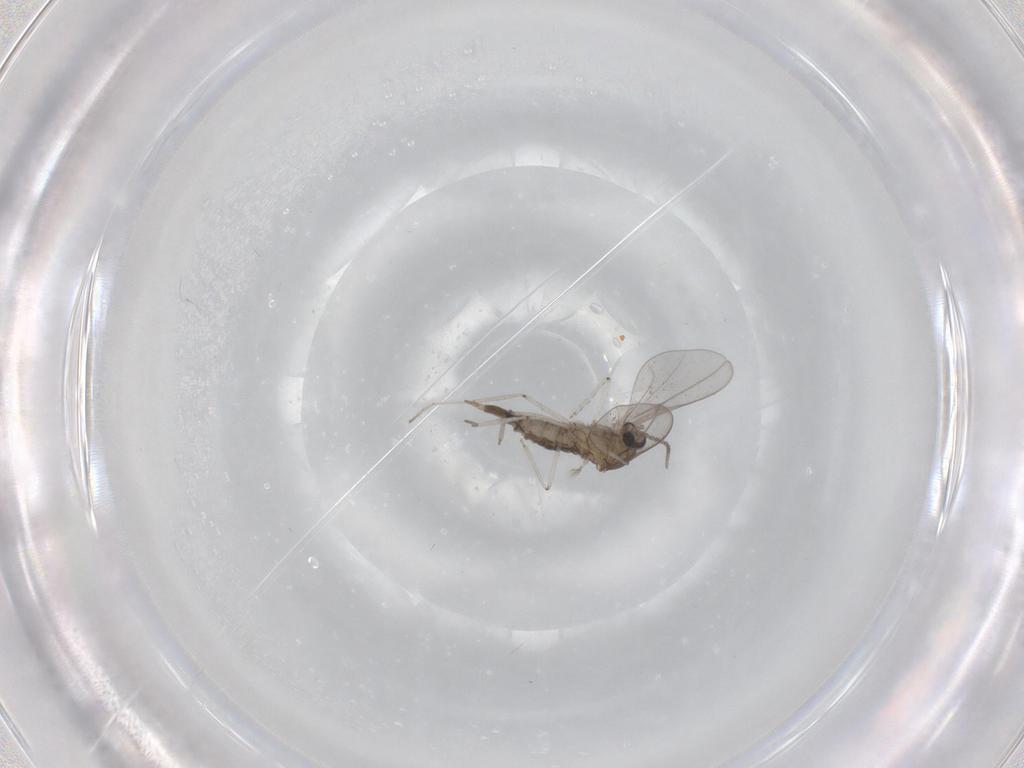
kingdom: Animalia
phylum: Arthropoda
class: Insecta
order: Diptera
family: Cecidomyiidae
